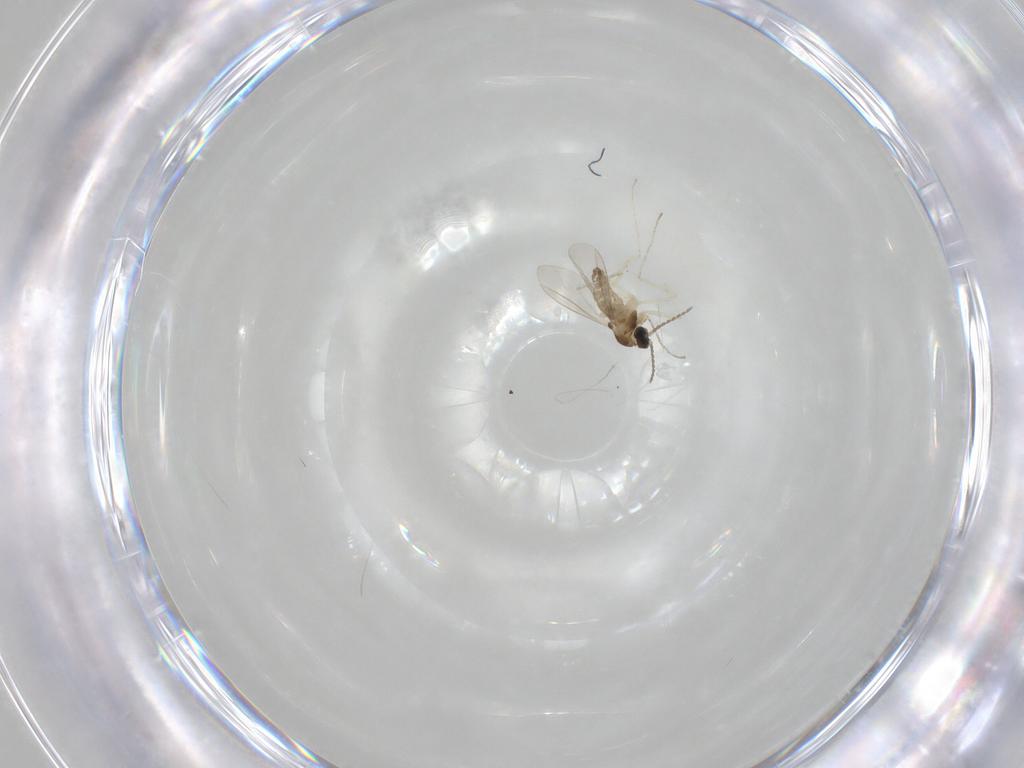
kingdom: Animalia
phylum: Arthropoda
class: Insecta
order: Diptera
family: Cecidomyiidae
